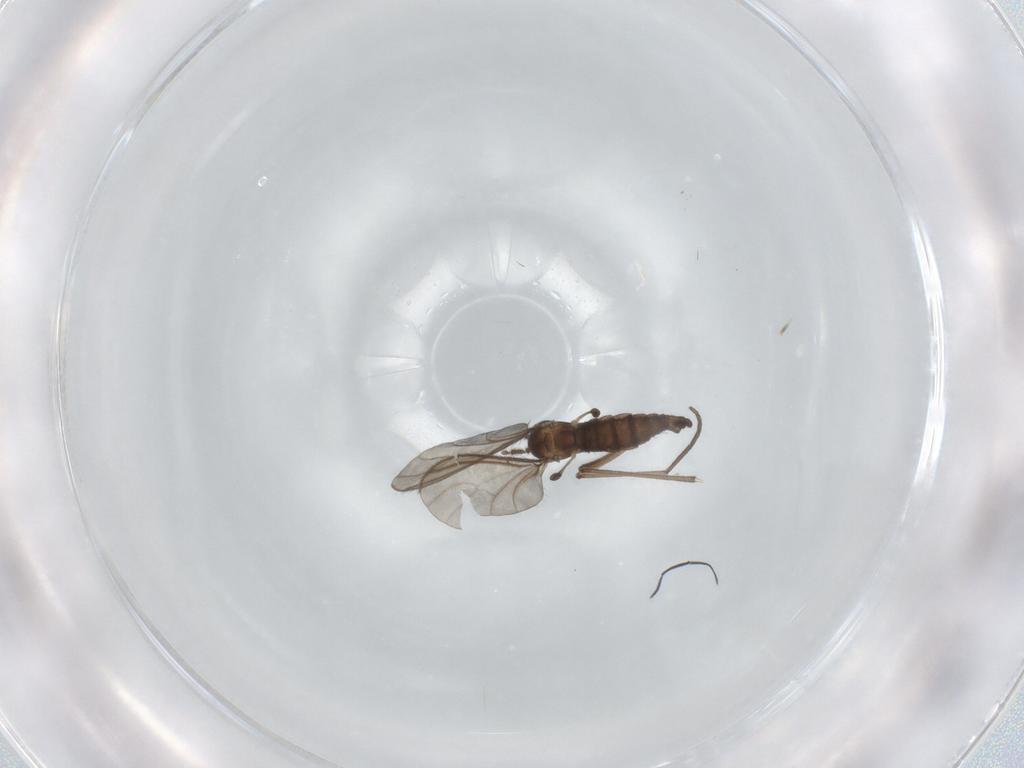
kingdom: Animalia
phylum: Arthropoda
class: Insecta
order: Diptera
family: Sciaridae
